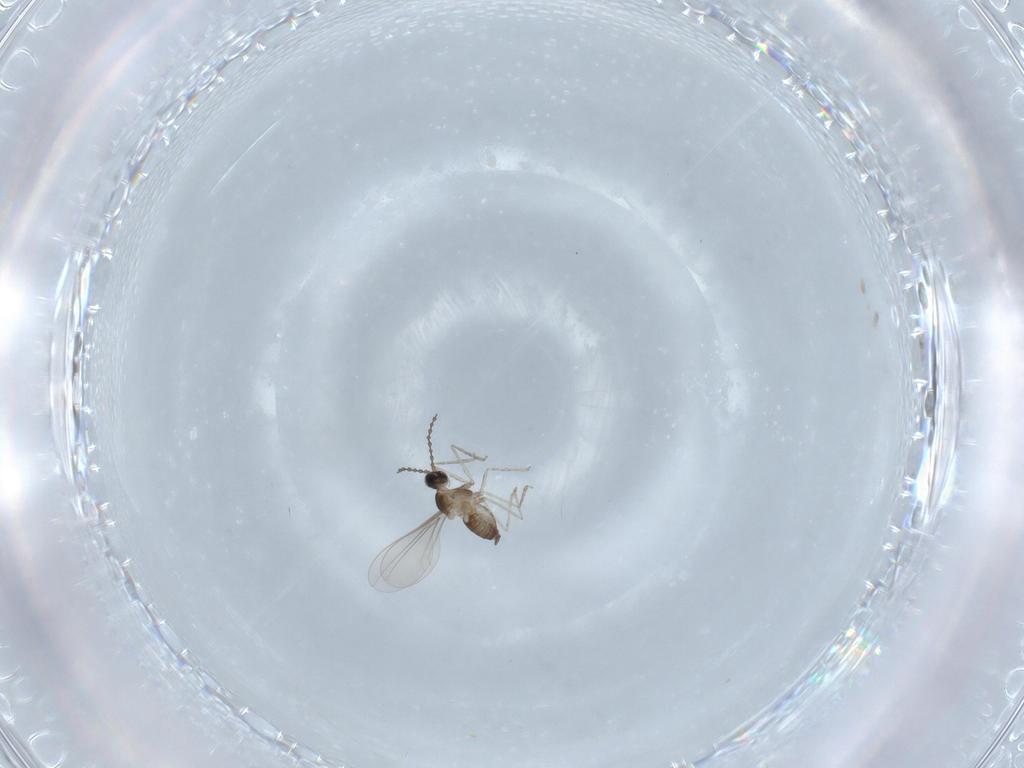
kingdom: Animalia
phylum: Arthropoda
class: Insecta
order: Diptera
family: Cecidomyiidae
